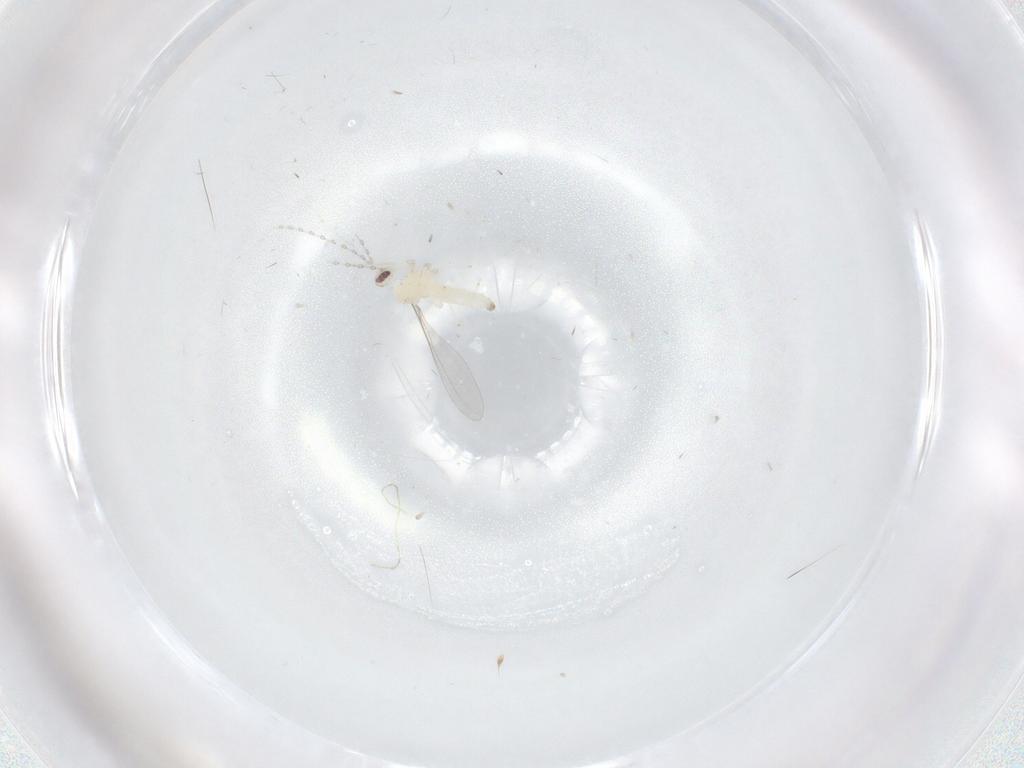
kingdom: Animalia
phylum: Arthropoda
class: Insecta
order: Diptera
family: Cecidomyiidae
